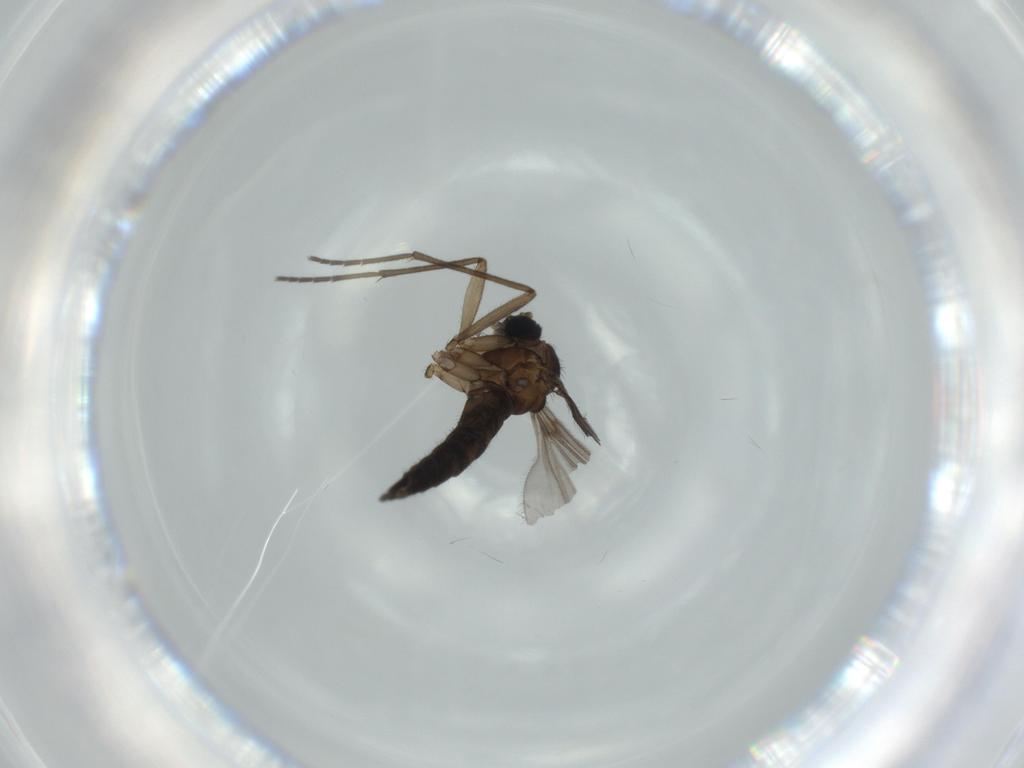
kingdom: Animalia
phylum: Arthropoda
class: Insecta
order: Diptera
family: Sciaridae
